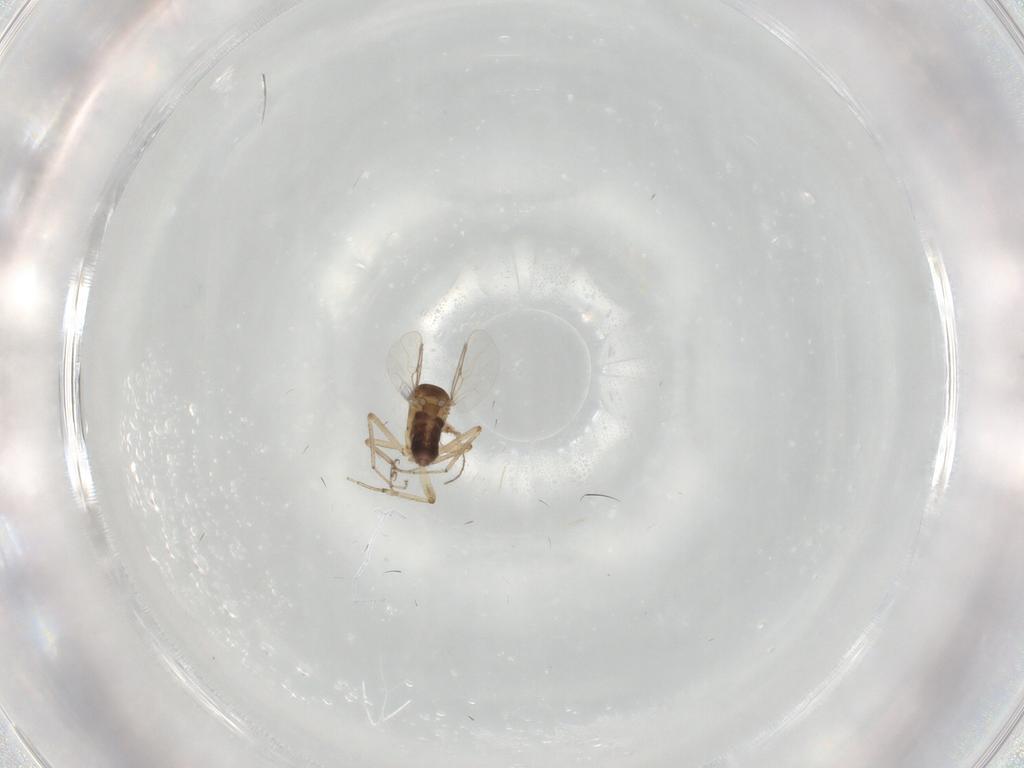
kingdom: Animalia
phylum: Arthropoda
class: Insecta
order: Diptera
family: Ceratopogonidae
